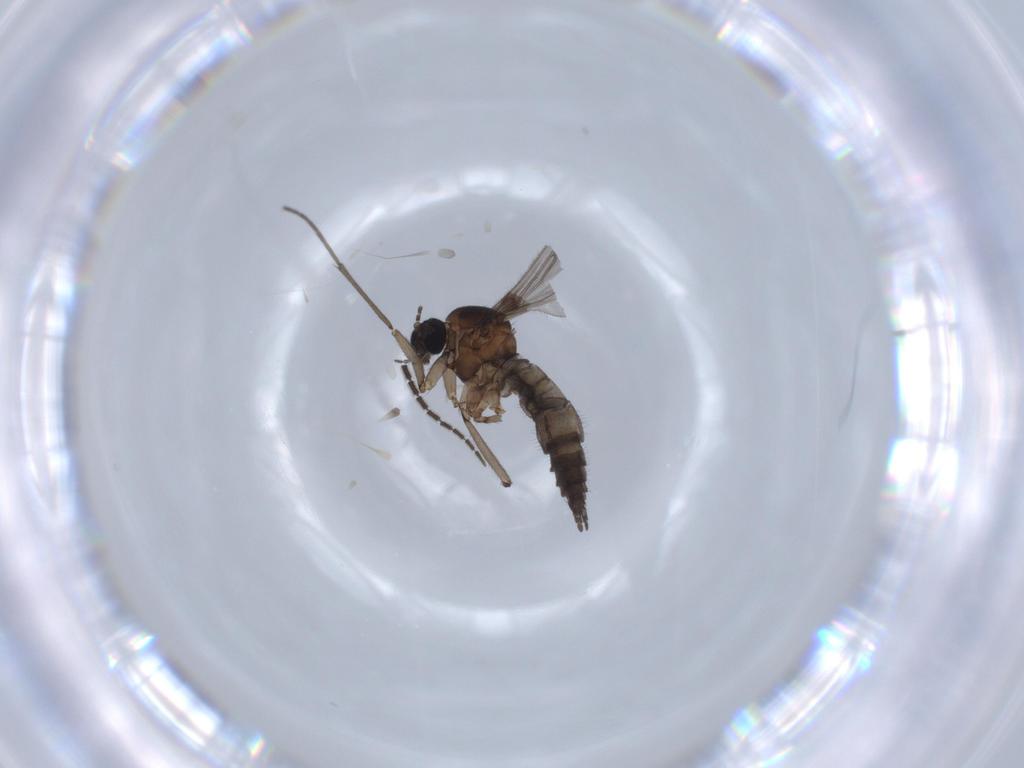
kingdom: Animalia
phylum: Arthropoda
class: Insecta
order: Diptera
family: Sciaridae
